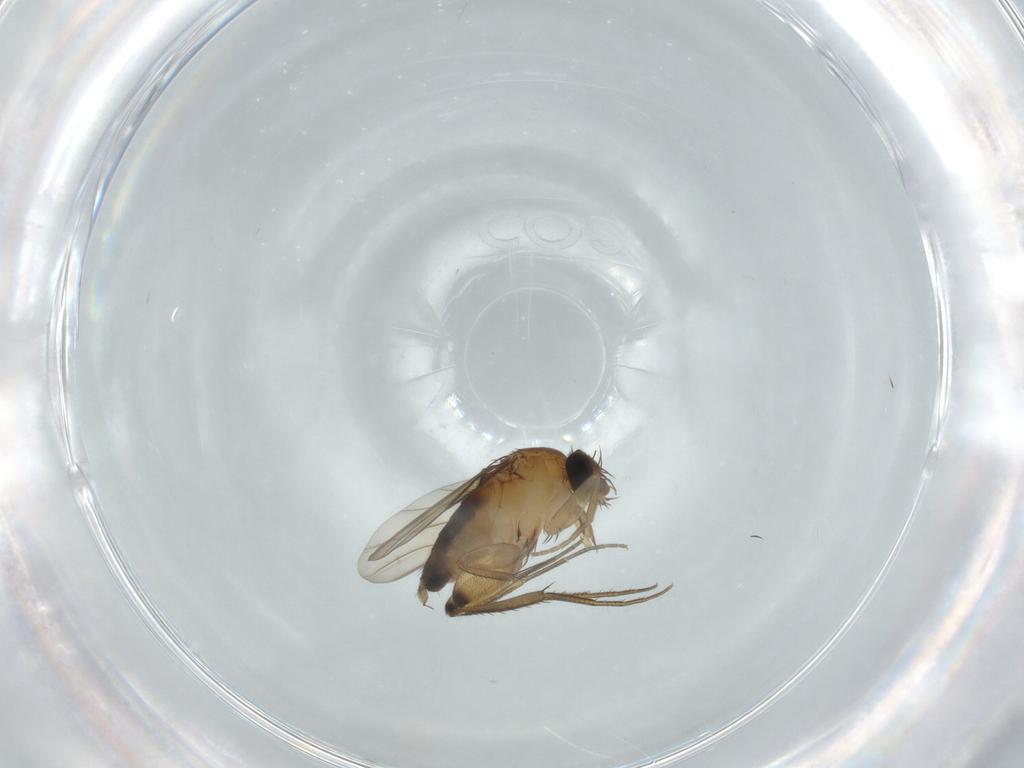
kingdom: Animalia
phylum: Arthropoda
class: Insecta
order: Diptera
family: Phoridae
